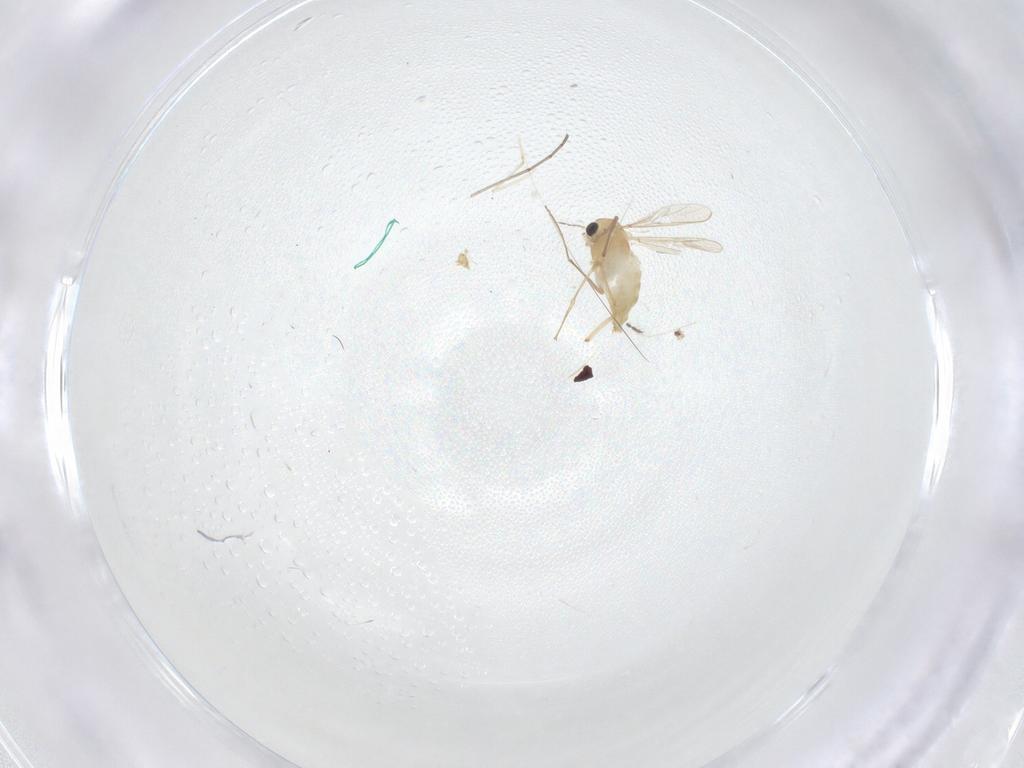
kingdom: Animalia
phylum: Arthropoda
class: Insecta
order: Diptera
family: Chironomidae
